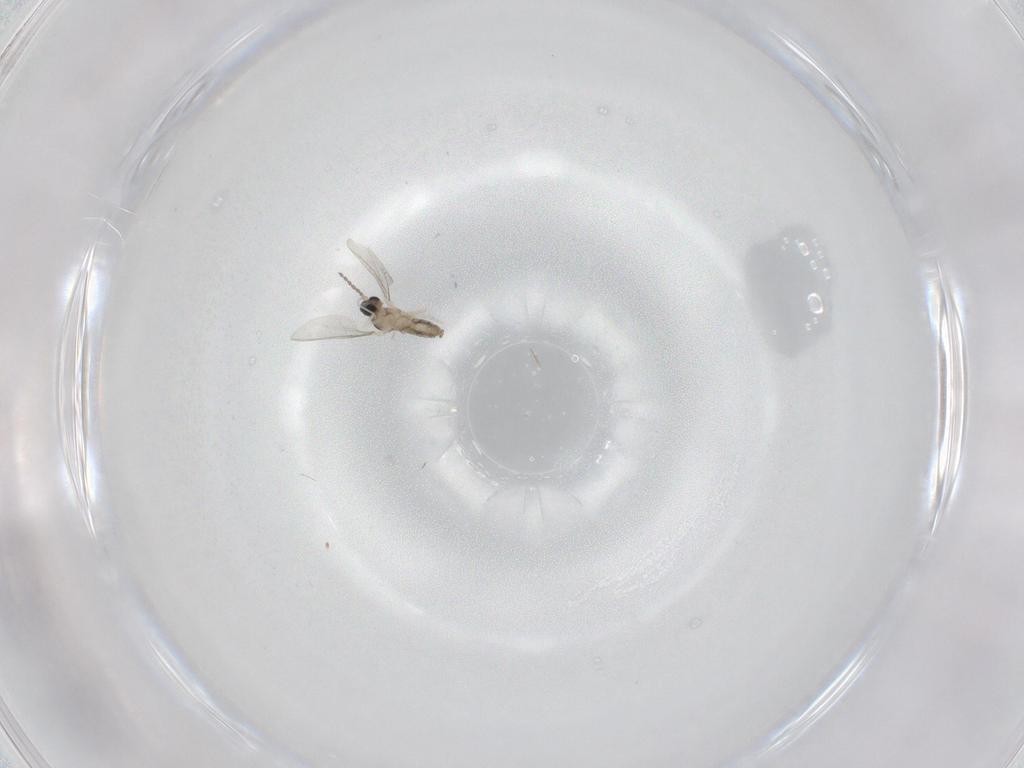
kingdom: Animalia
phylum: Arthropoda
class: Insecta
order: Diptera
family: Cecidomyiidae
